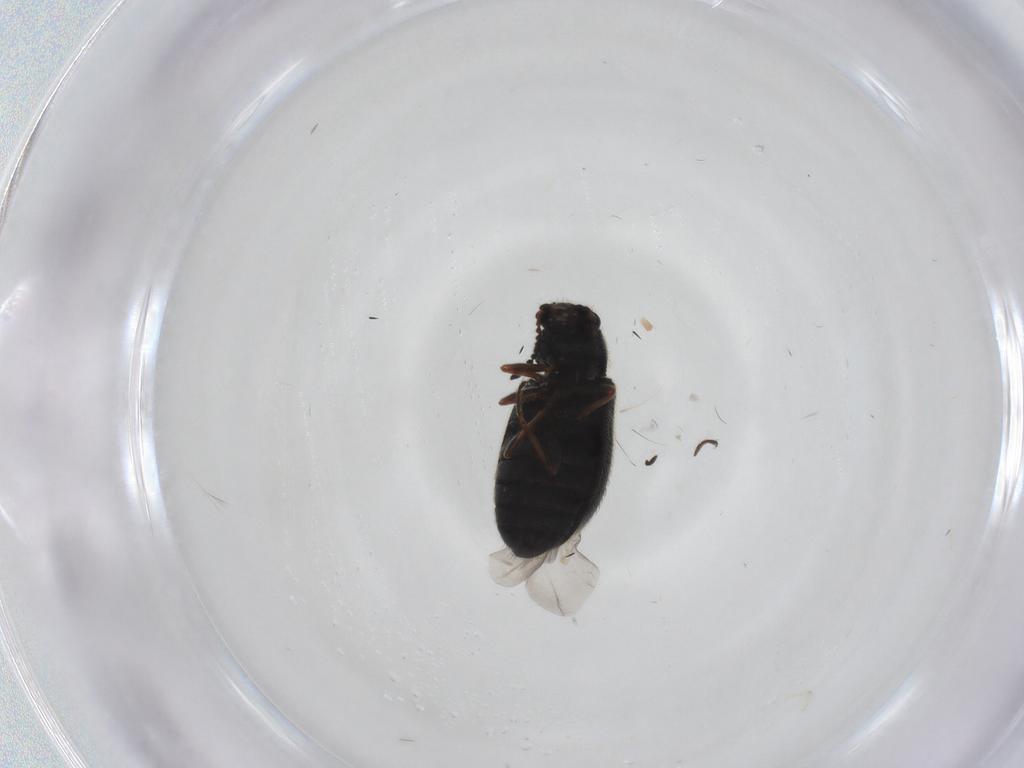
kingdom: Animalia
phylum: Arthropoda
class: Insecta
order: Coleoptera
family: Melyridae
